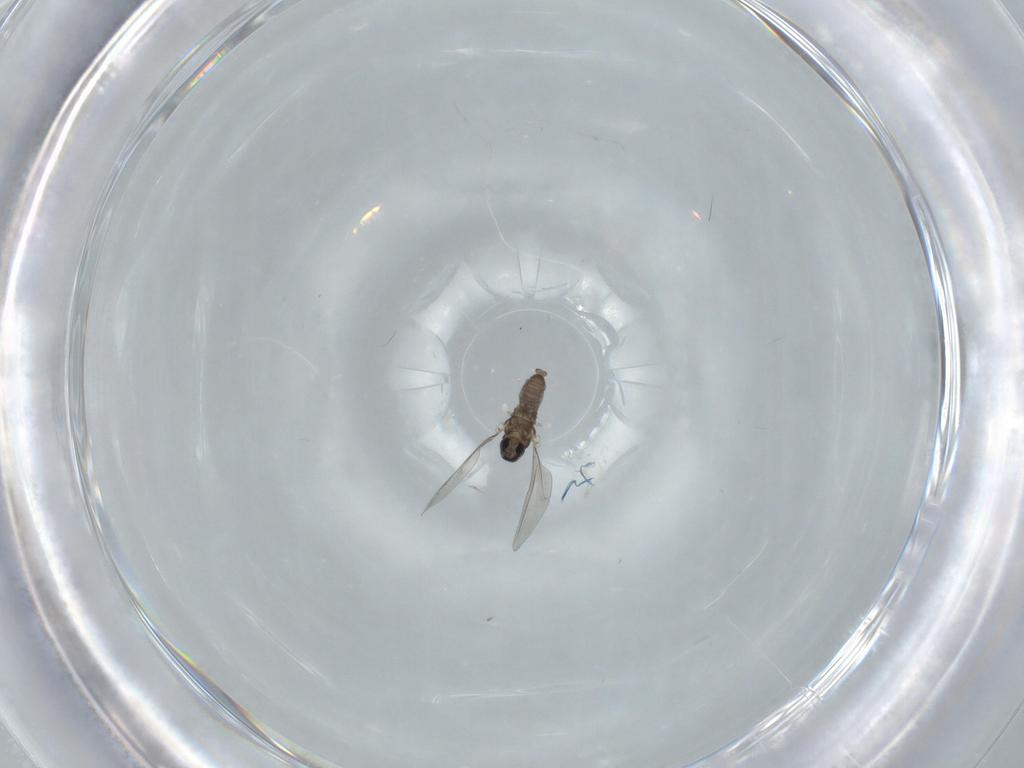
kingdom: Animalia
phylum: Arthropoda
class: Insecta
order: Diptera
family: Cecidomyiidae
